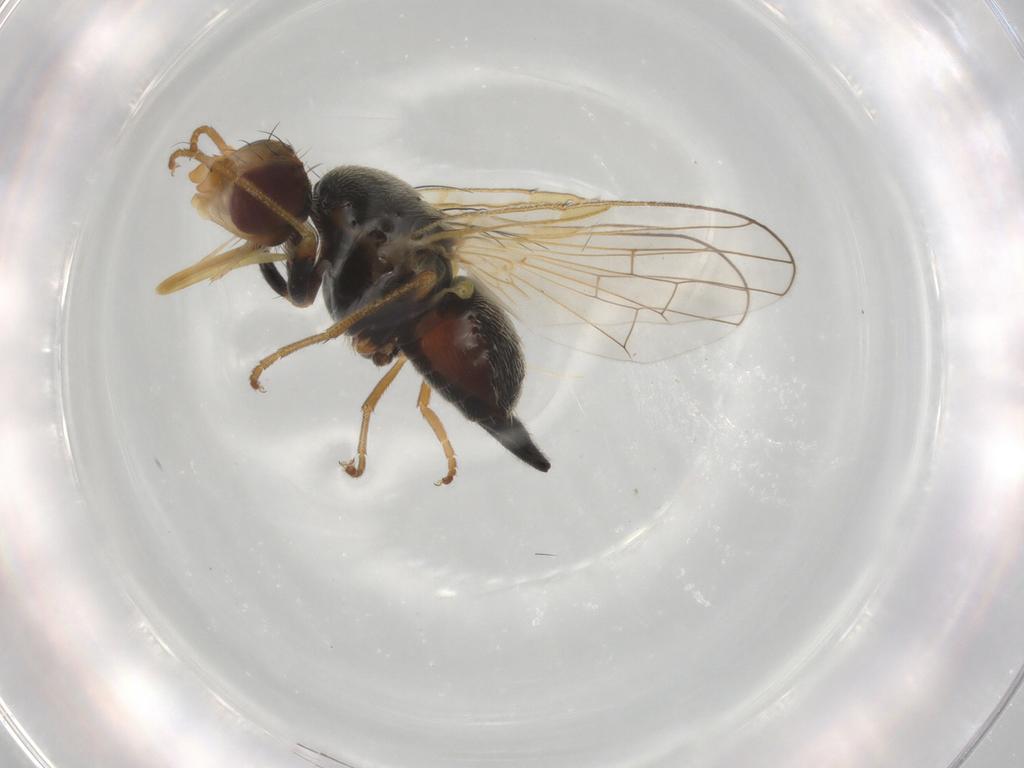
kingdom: Animalia
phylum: Arthropoda
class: Insecta
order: Diptera
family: Tephritidae
